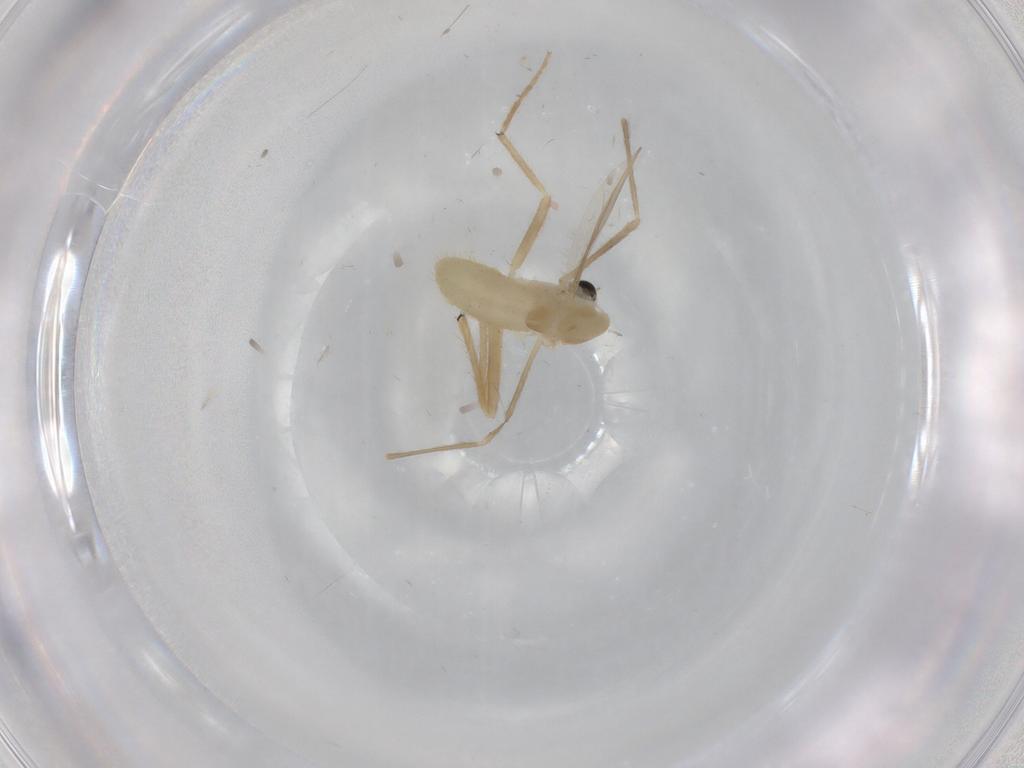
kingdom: Animalia
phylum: Arthropoda
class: Insecta
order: Diptera
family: Chironomidae
